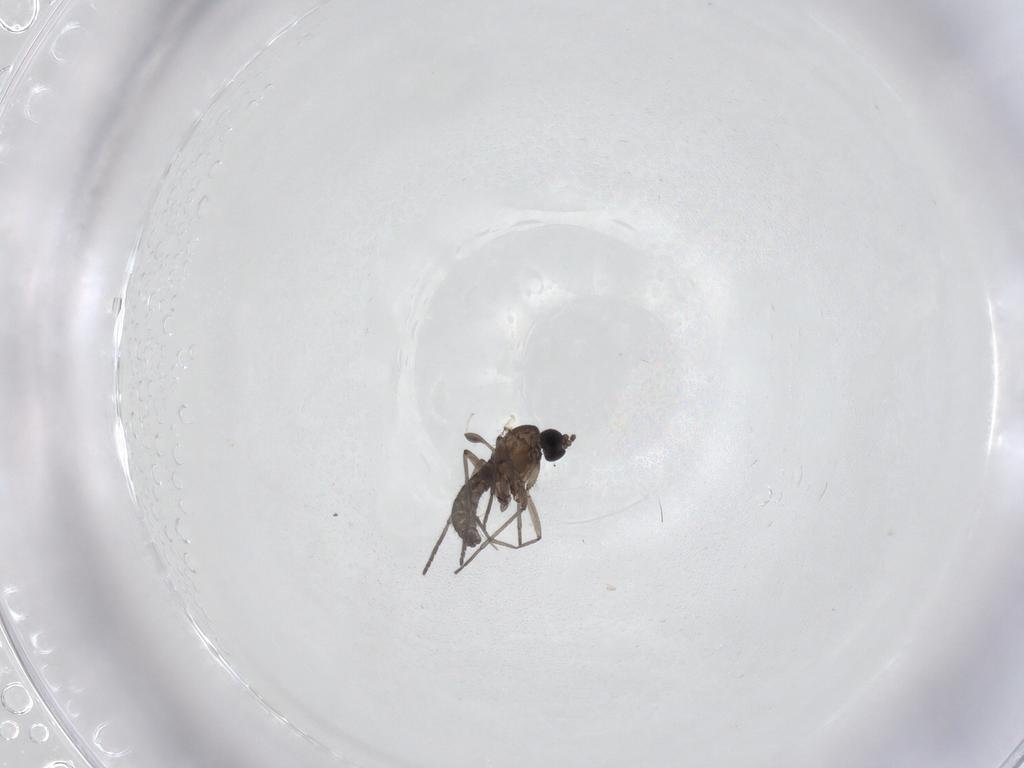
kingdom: Animalia
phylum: Arthropoda
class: Insecta
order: Diptera
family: Sciaridae
